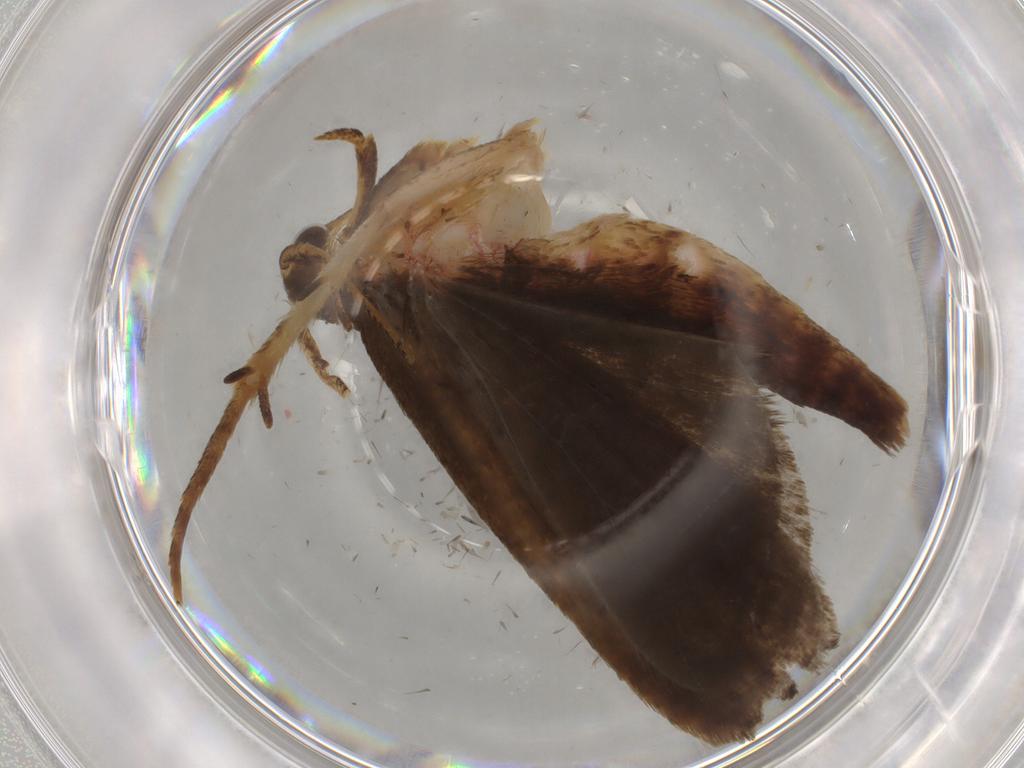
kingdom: Animalia
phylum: Arthropoda
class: Insecta
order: Lepidoptera
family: Autostichidae
